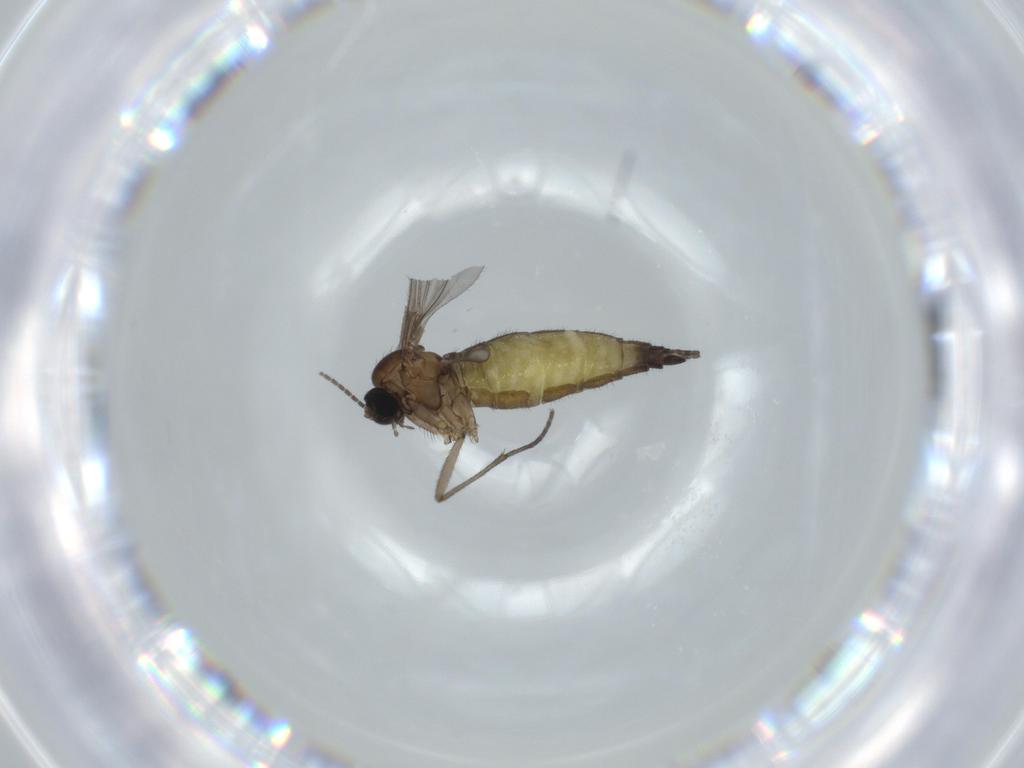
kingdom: Animalia
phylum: Arthropoda
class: Insecta
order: Diptera
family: Sciaridae
